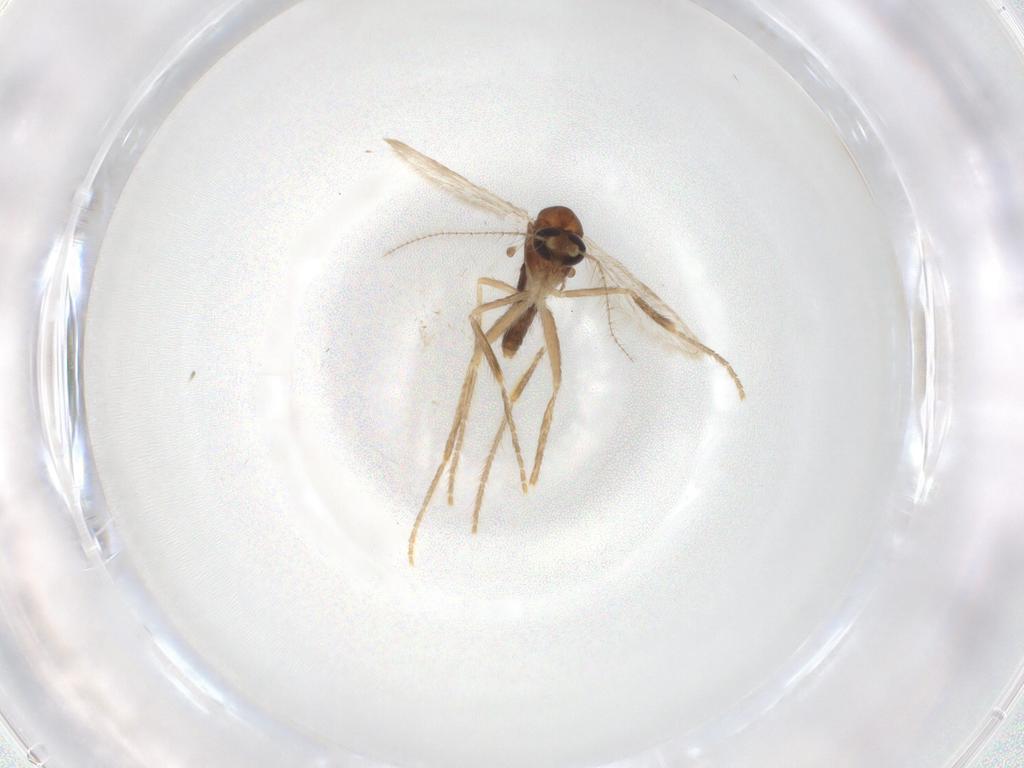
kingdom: Animalia
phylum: Arthropoda
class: Insecta
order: Diptera
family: Corethrellidae
